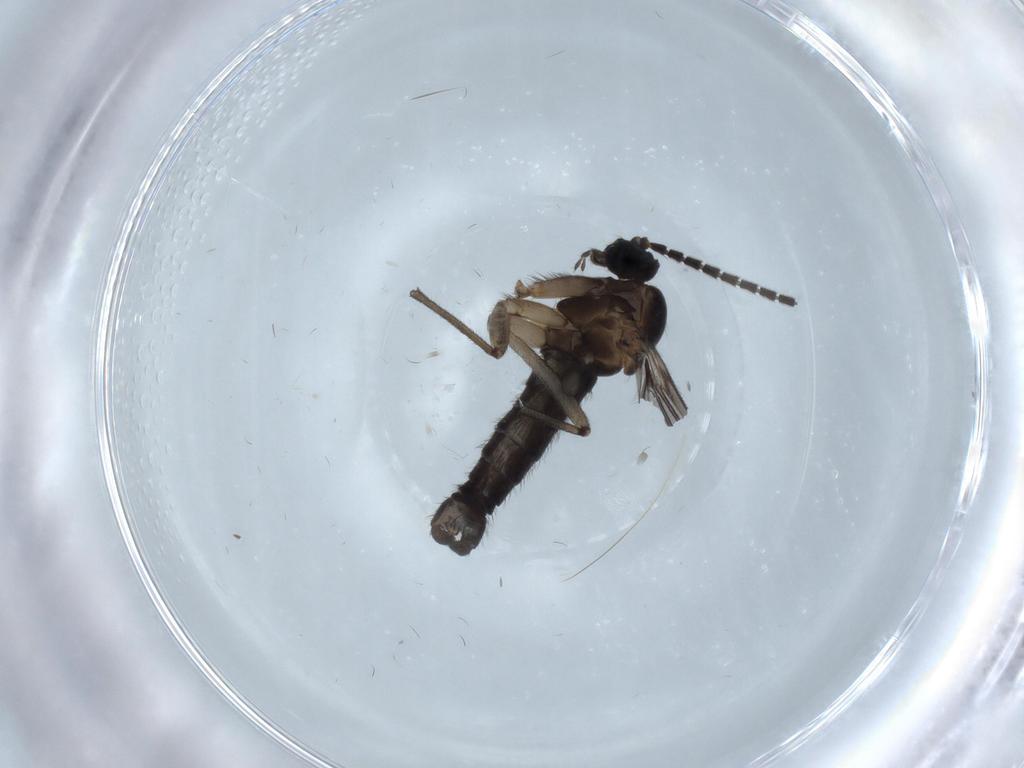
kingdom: Animalia
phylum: Arthropoda
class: Insecta
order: Diptera
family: Sciaridae
